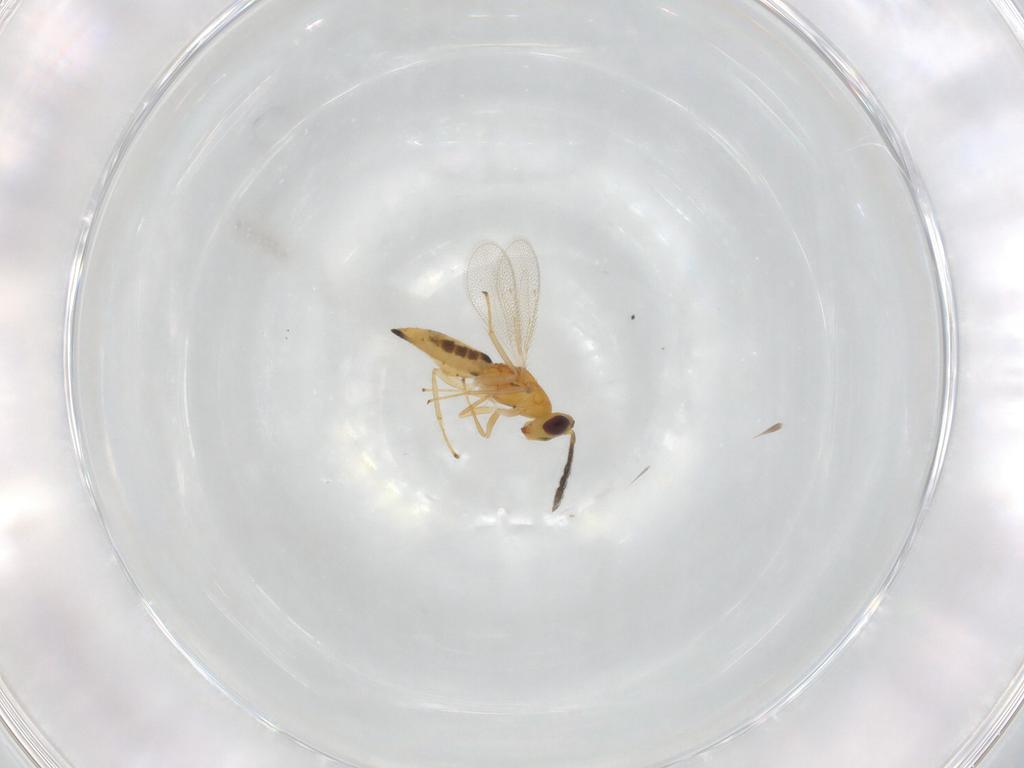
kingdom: Animalia
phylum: Arthropoda
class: Insecta
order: Hymenoptera
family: Eulophidae
